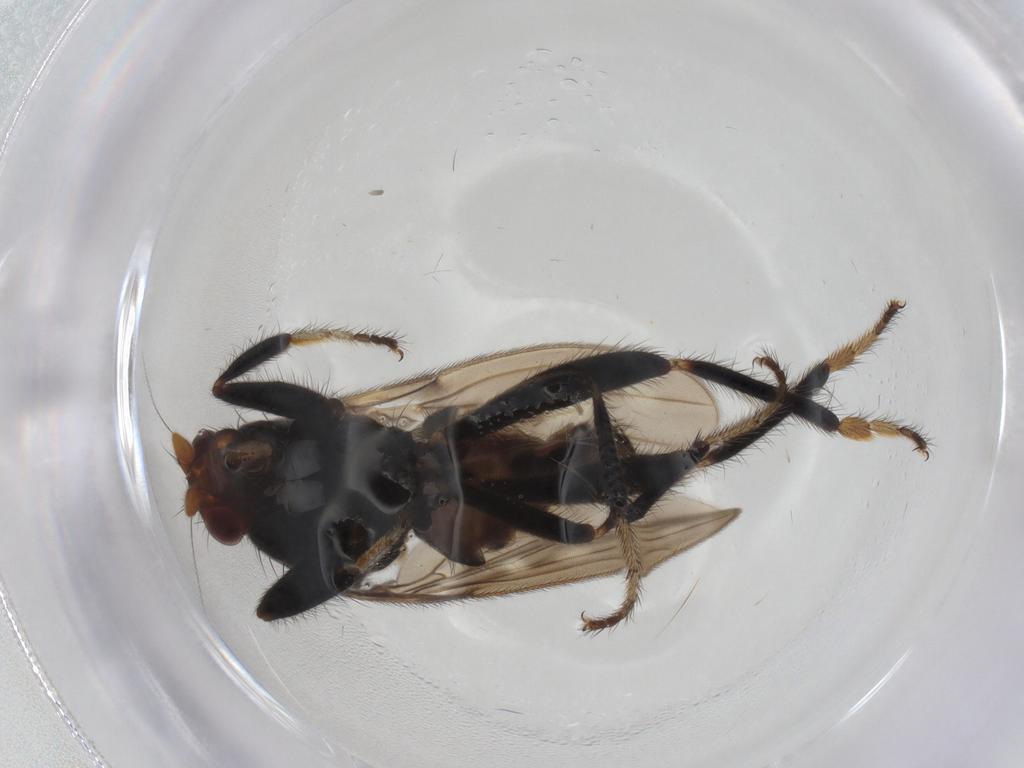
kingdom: Animalia
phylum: Arthropoda
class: Insecta
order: Diptera
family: Sphaeroceridae
